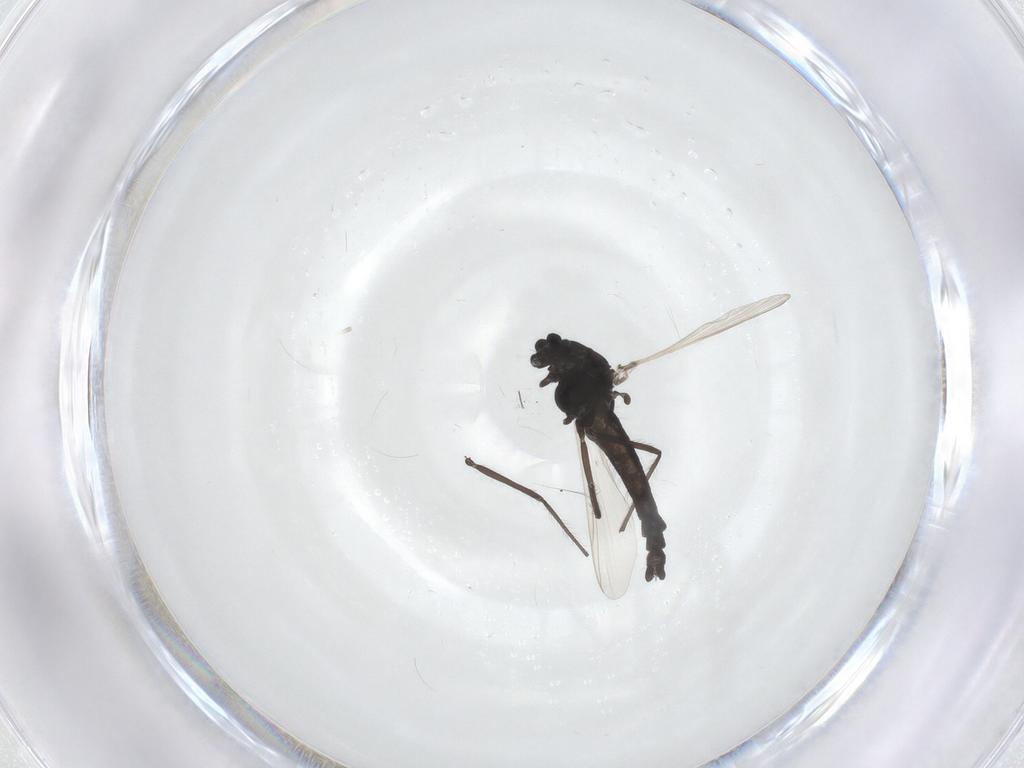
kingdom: Animalia
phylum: Arthropoda
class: Insecta
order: Diptera
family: Chironomidae
